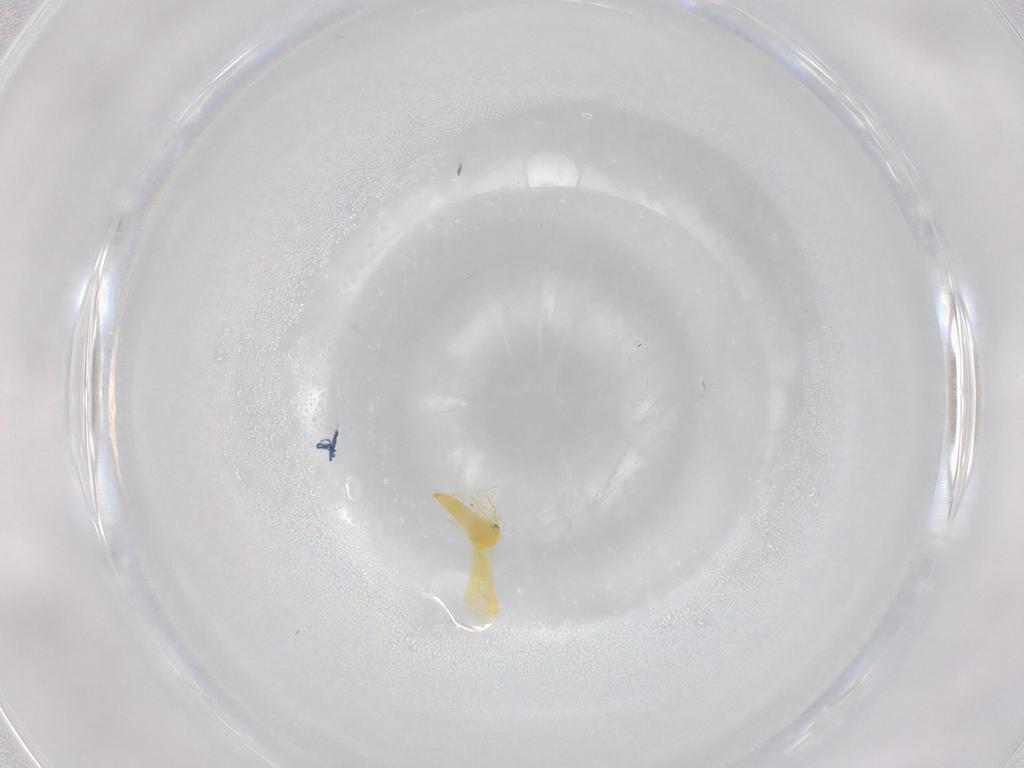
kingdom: Animalia
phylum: Arthropoda
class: Insecta
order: Hemiptera
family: Aleyrodidae
